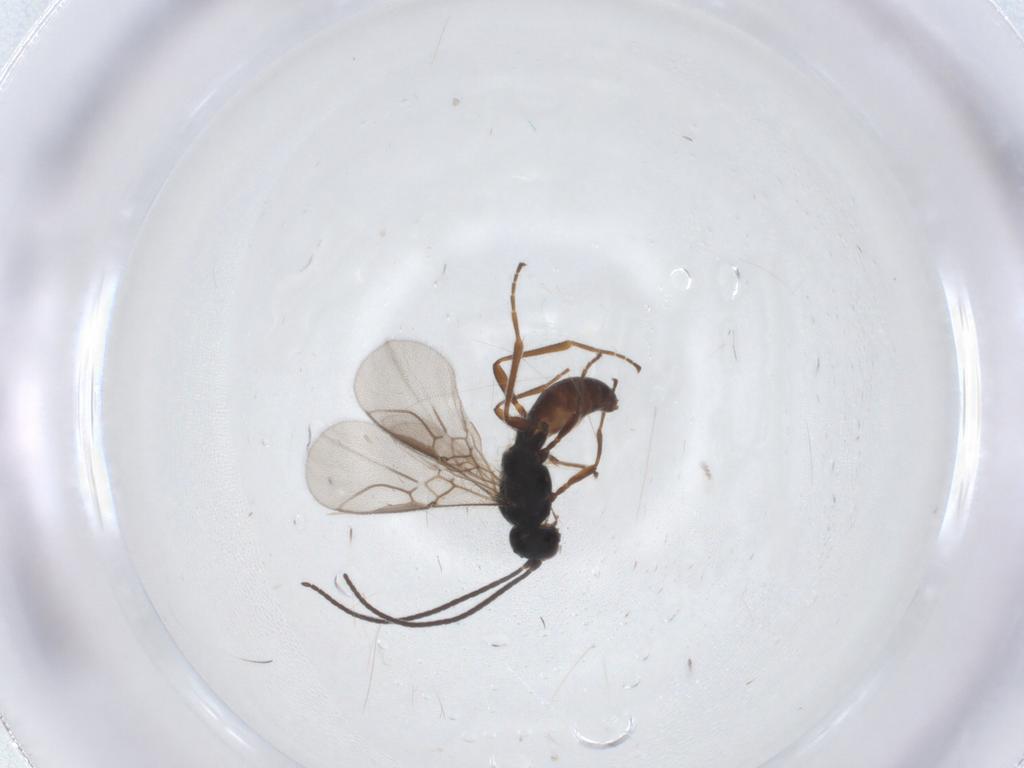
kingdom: Animalia
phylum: Arthropoda
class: Insecta
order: Hymenoptera
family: Braconidae
